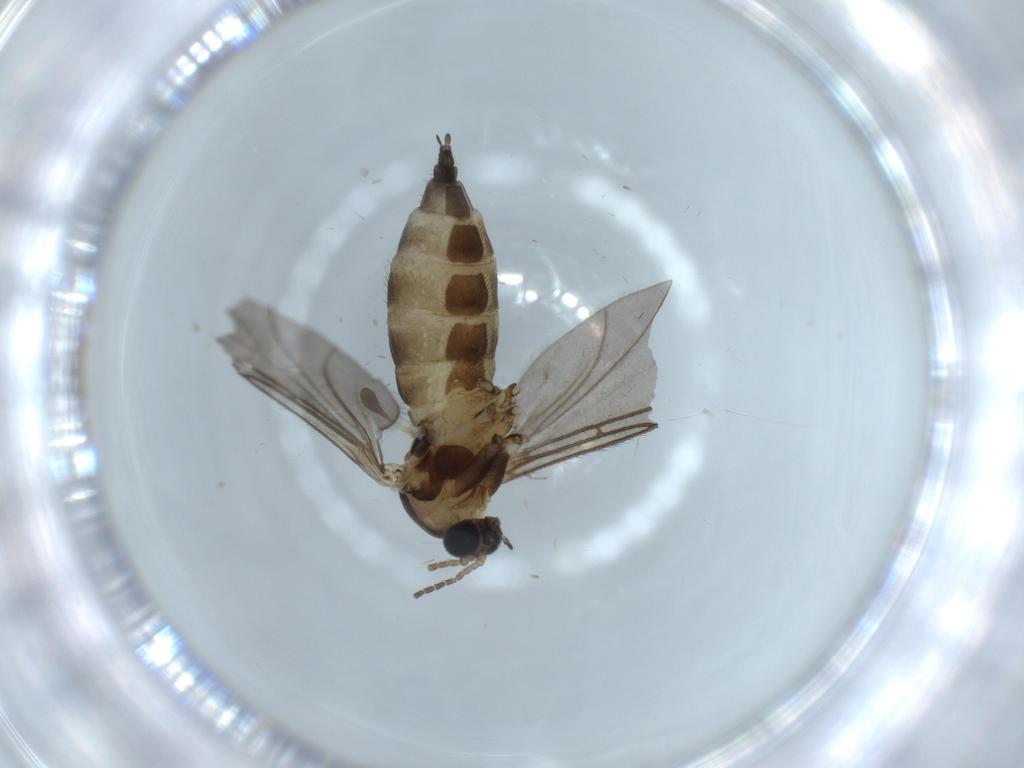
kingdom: Animalia
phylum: Arthropoda
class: Insecta
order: Diptera
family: Sciaridae
